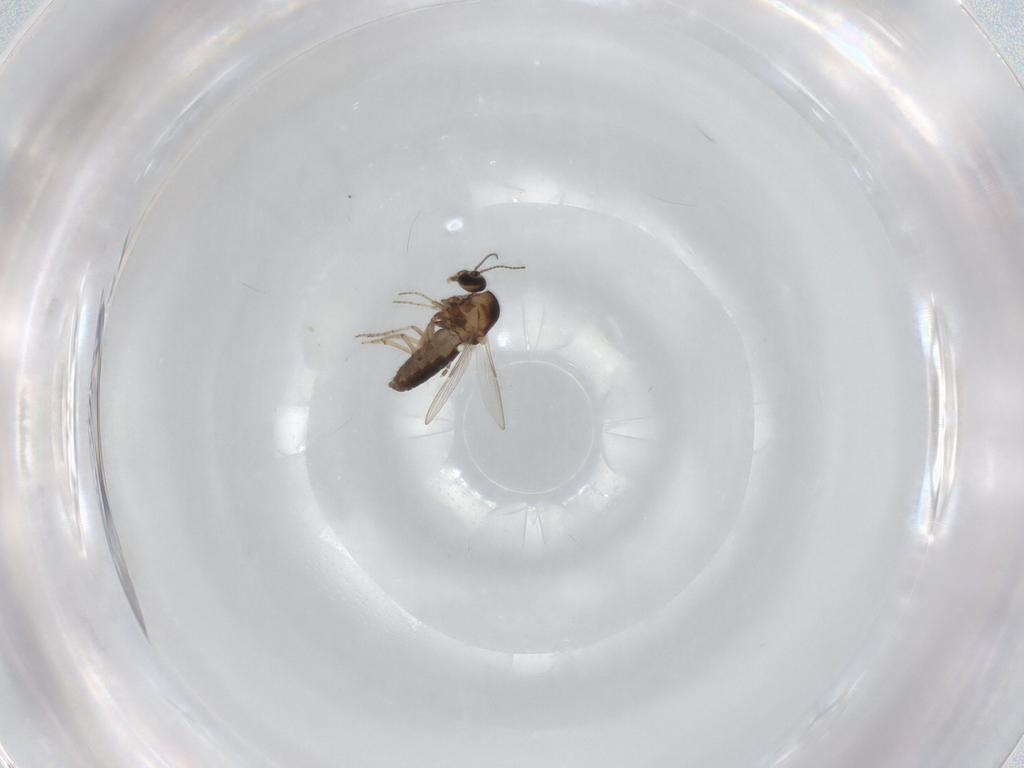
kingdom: Animalia
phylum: Arthropoda
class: Insecta
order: Diptera
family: Ceratopogonidae
